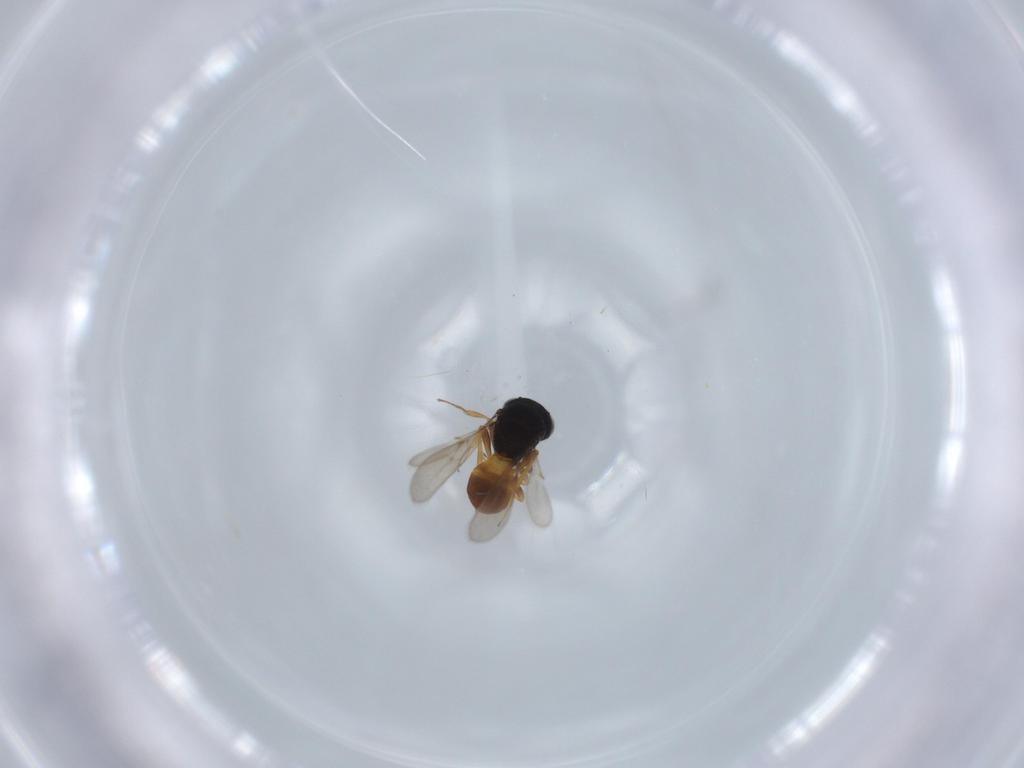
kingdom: Animalia
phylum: Arthropoda
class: Insecta
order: Hymenoptera
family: Scelionidae
